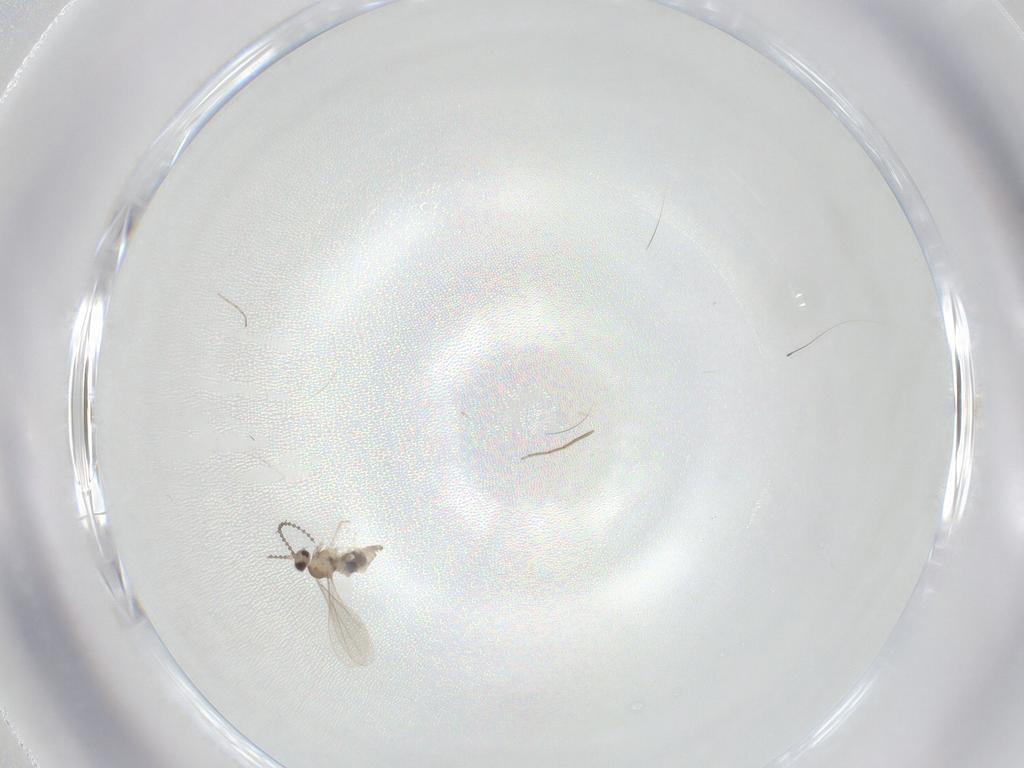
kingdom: Animalia
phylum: Arthropoda
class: Insecta
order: Diptera
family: Cecidomyiidae
